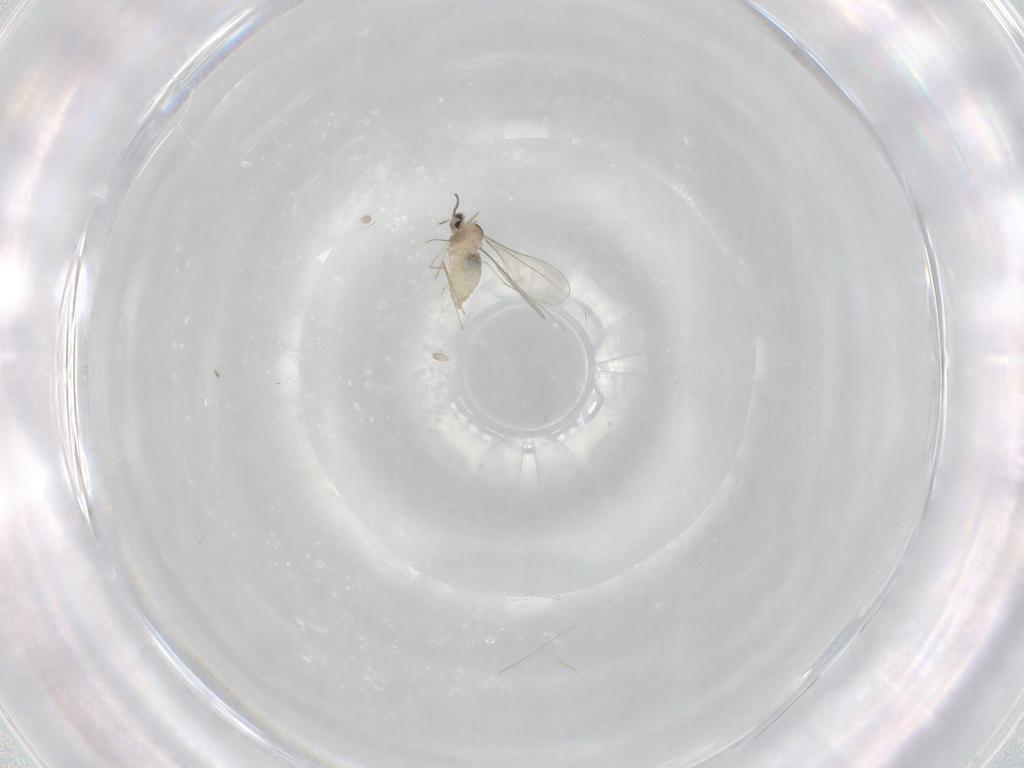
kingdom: Animalia
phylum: Arthropoda
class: Insecta
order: Diptera
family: Cecidomyiidae
